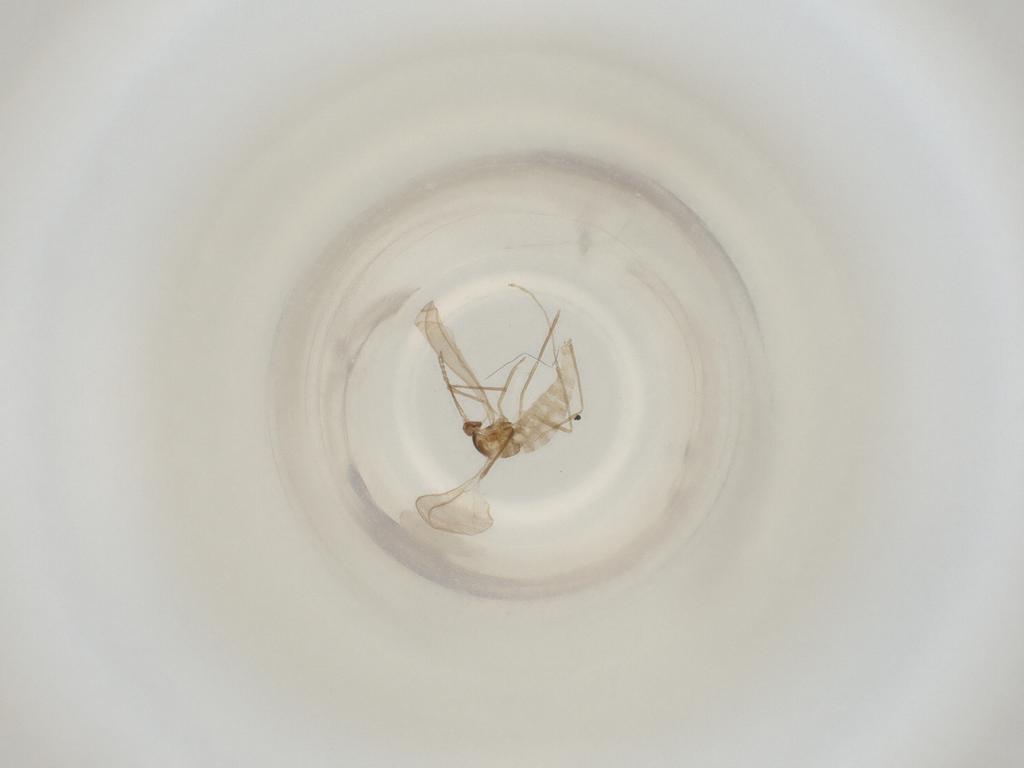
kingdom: Animalia
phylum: Arthropoda
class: Insecta
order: Diptera
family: Cecidomyiidae
